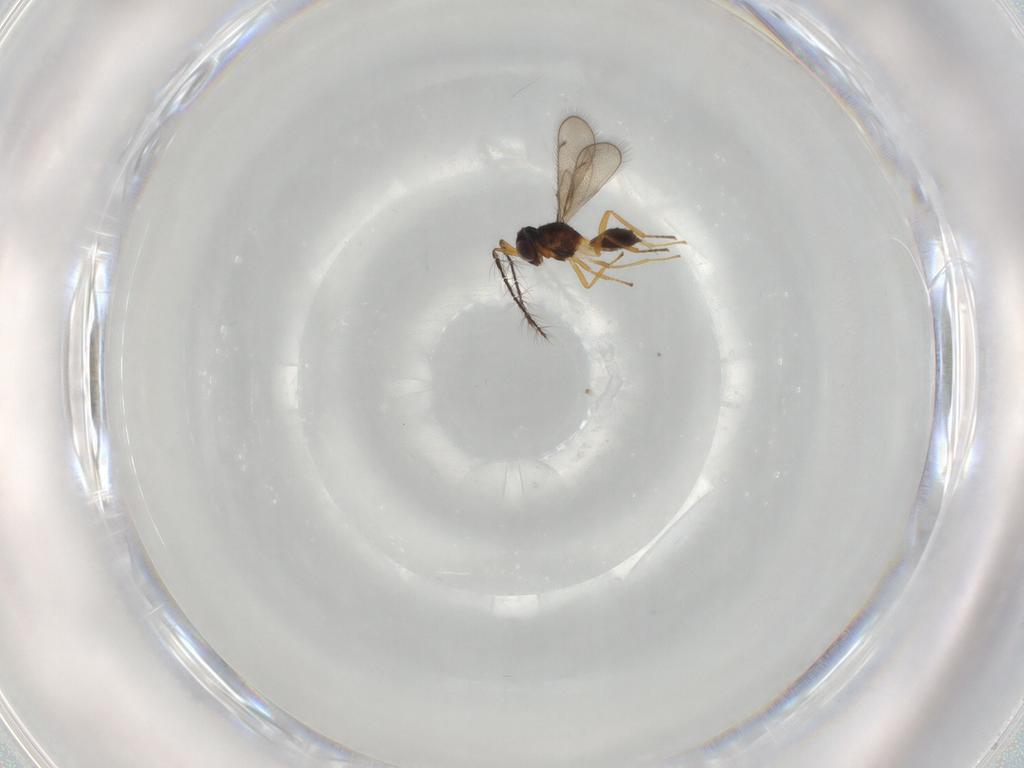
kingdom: Animalia
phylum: Arthropoda
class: Insecta
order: Hymenoptera
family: Eulophidae
